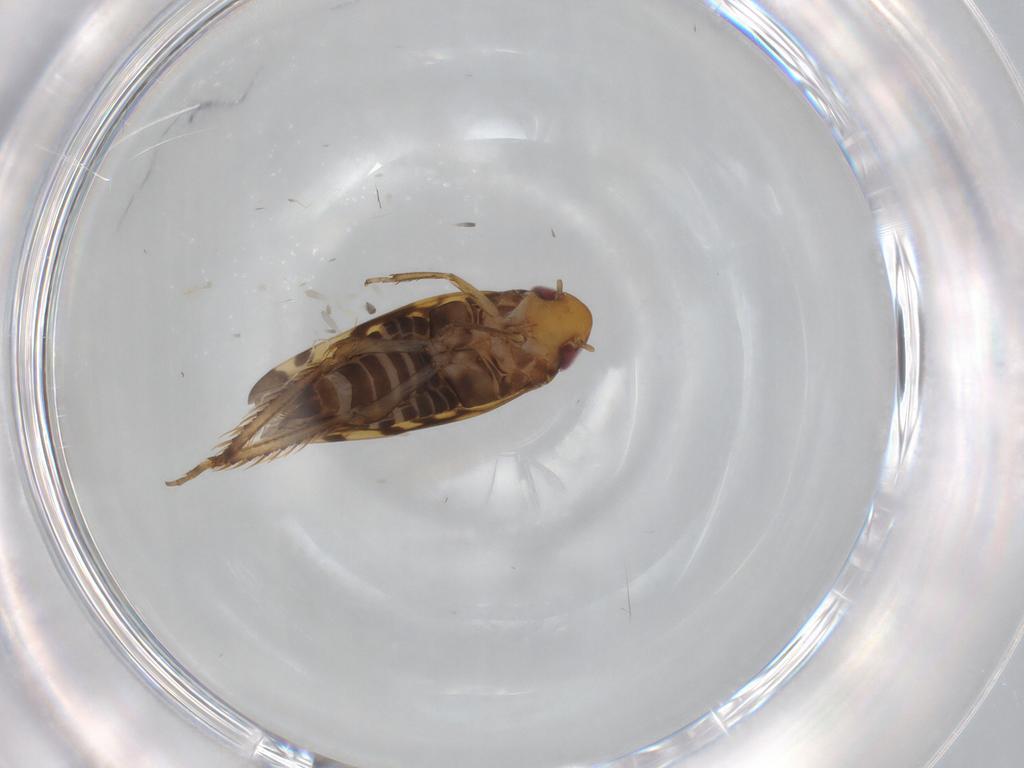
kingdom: Animalia
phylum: Arthropoda
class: Insecta
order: Hemiptera
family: Cicadellidae
